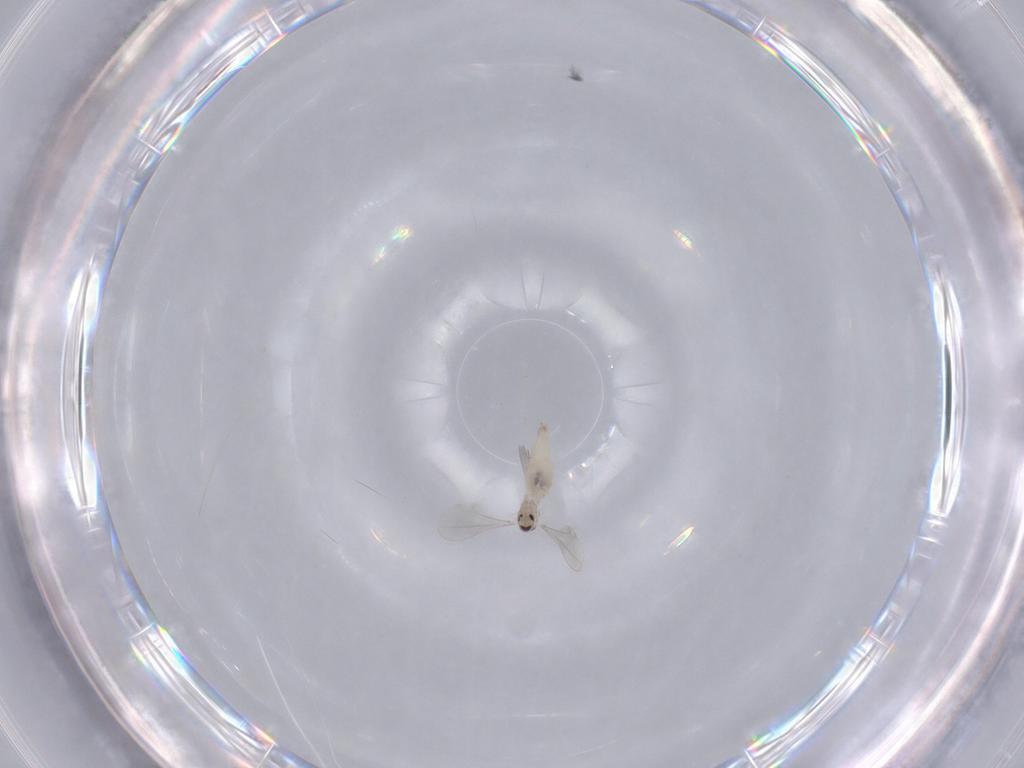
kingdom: Animalia
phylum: Arthropoda
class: Insecta
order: Diptera
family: Cecidomyiidae
